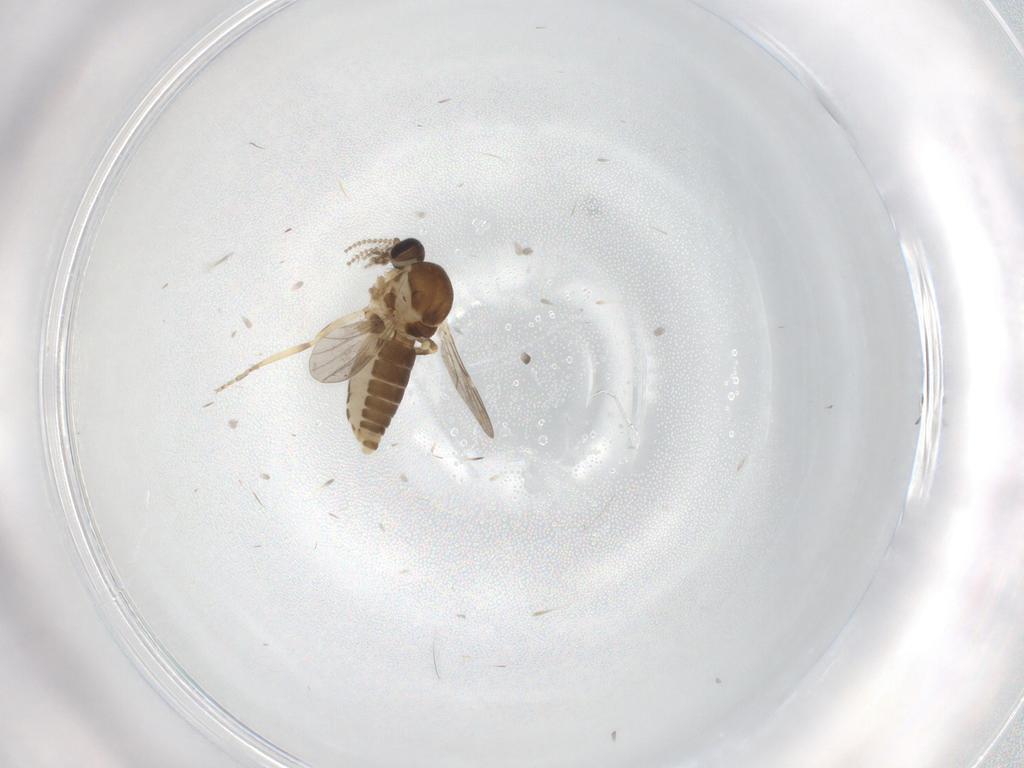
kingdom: Animalia
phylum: Arthropoda
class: Insecta
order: Diptera
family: Ceratopogonidae
